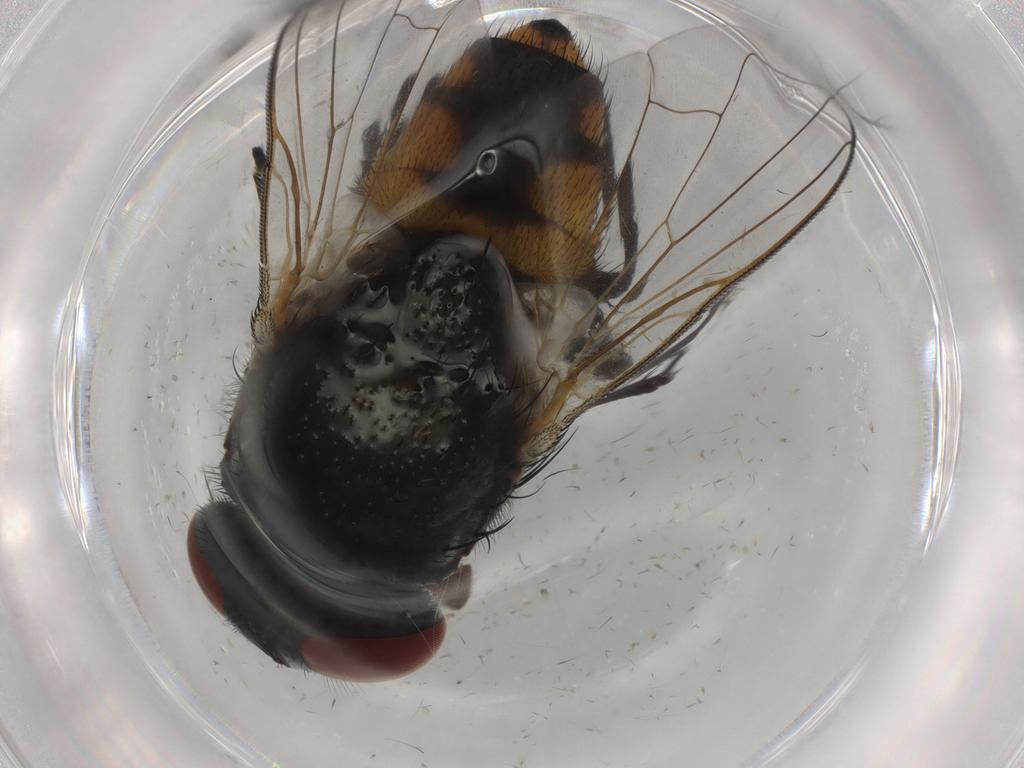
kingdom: Animalia
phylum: Arthropoda
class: Insecta
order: Diptera
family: Muscidae
